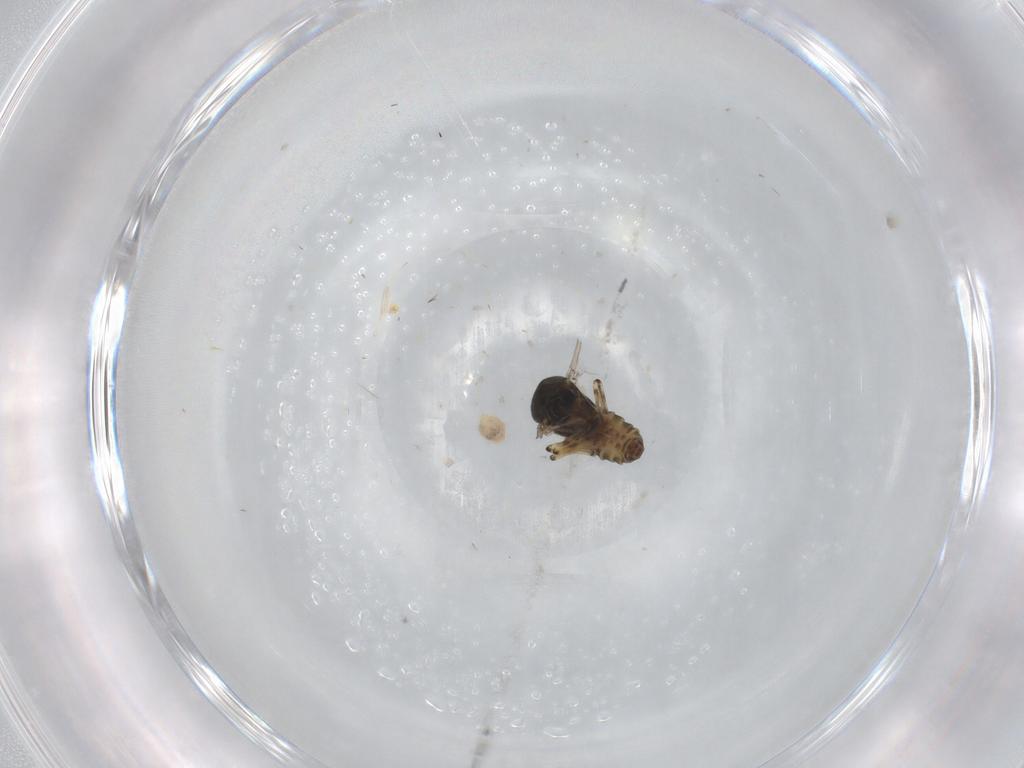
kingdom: Animalia
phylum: Arthropoda
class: Insecta
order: Diptera
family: Ceratopogonidae
